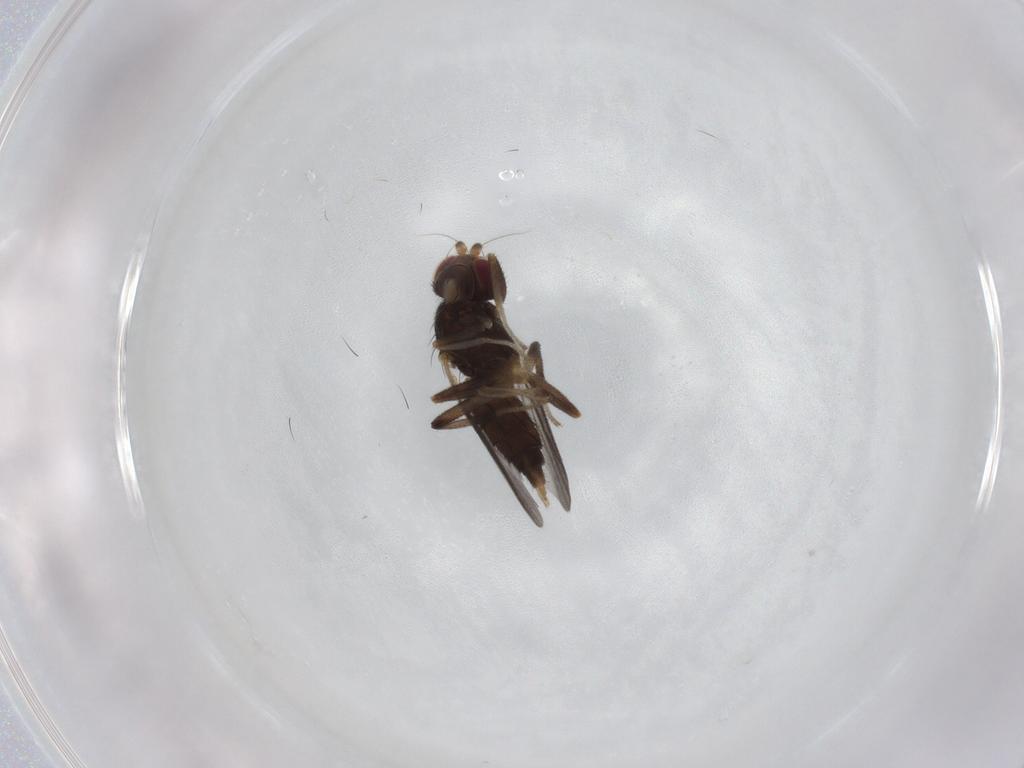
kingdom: Animalia
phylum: Arthropoda
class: Insecta
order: Diptera
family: Clusiidae
